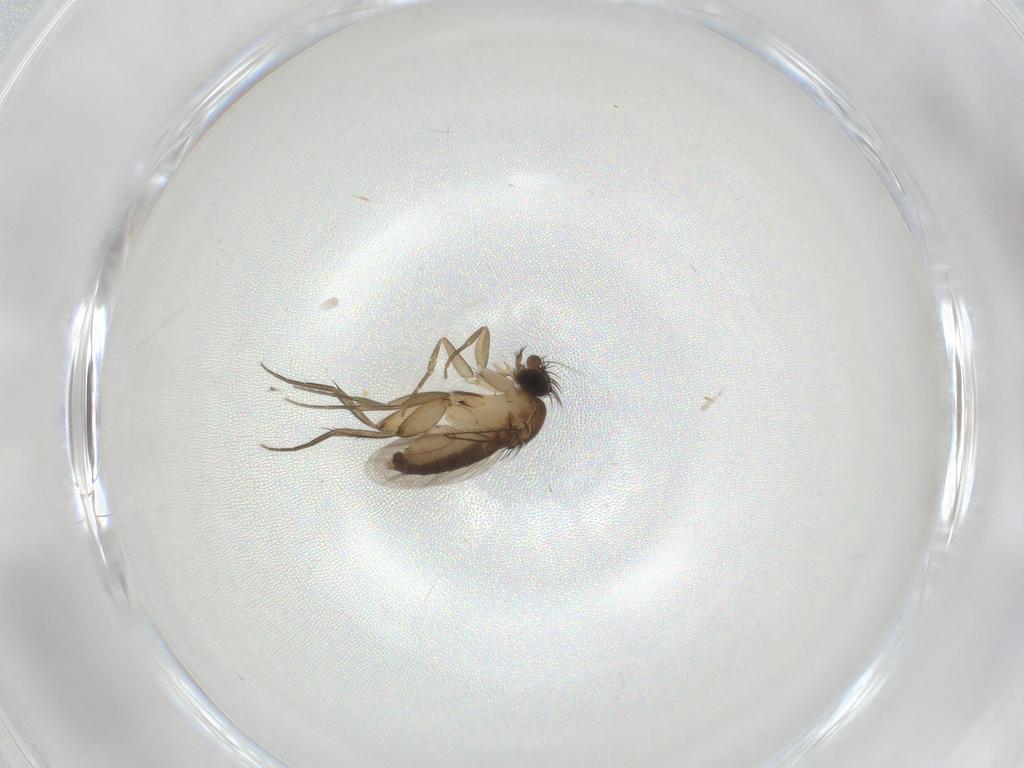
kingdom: Animalia
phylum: Arthropoda
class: Insecta
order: Diptera
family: Phoridae
